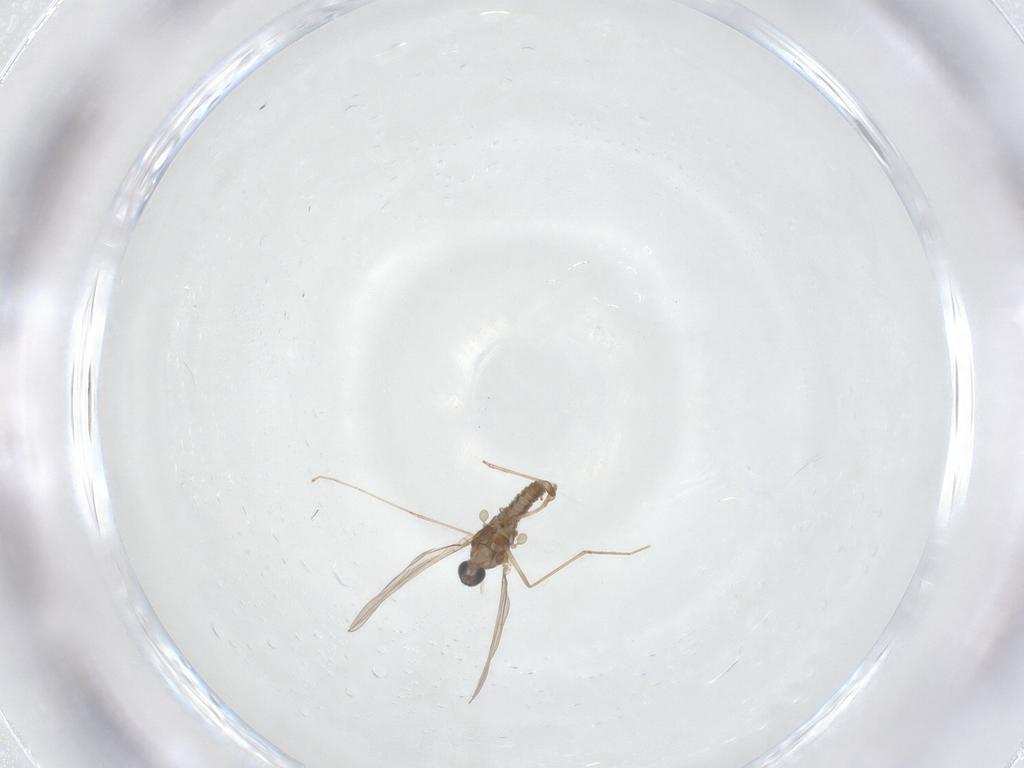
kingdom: Animalia
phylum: Arthropoda
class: Insecta
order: Diptera
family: Cecidomyiidae
